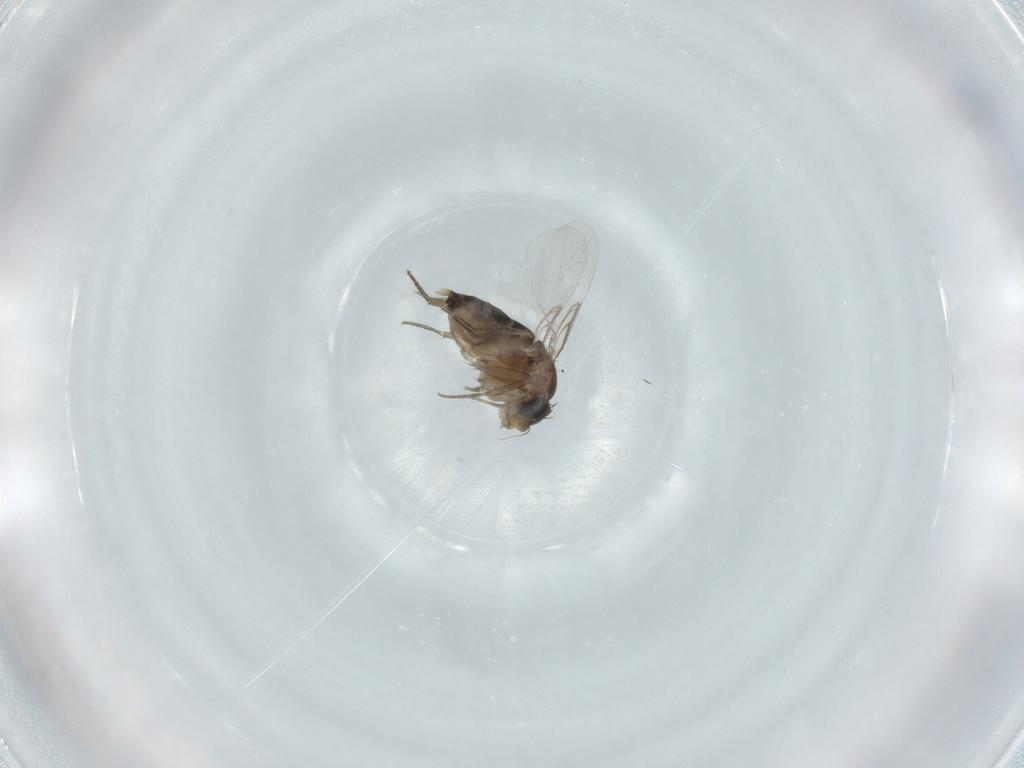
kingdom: Animalia
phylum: Arthropoda
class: Insecta
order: Diptera
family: Phoridae
